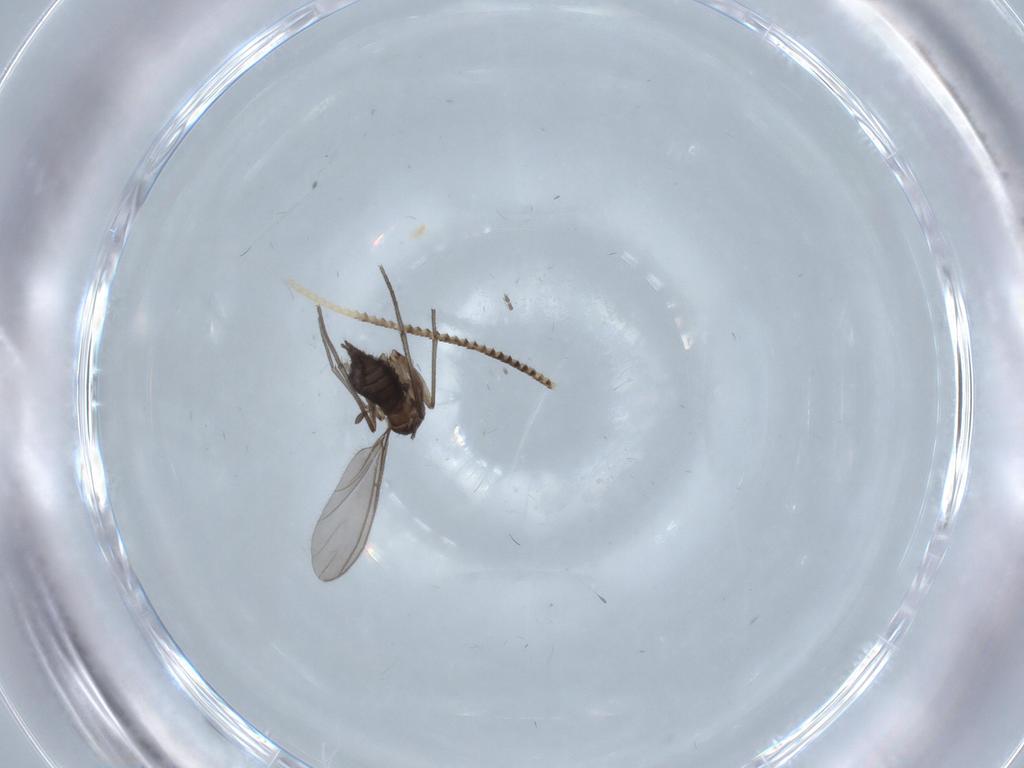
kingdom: Animalia
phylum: Arthropoda
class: Insecta
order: Diptera
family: Sciaridae
